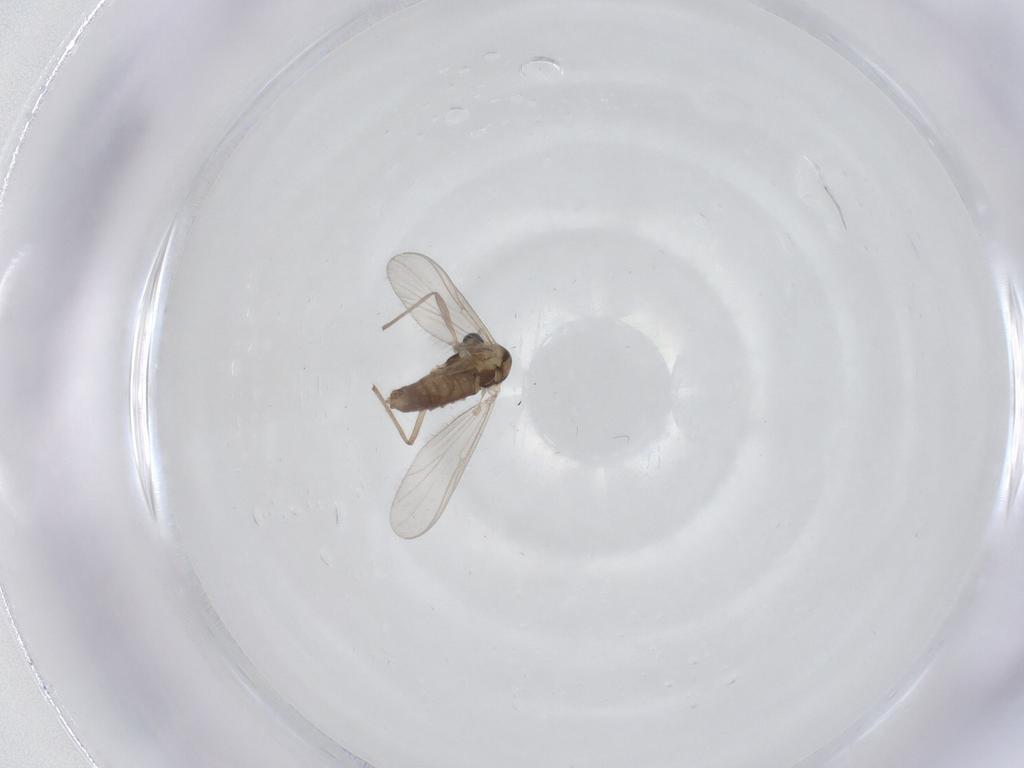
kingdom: Animalia
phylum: Arthropoda
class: Insecta
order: Diptera
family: Chironomidae
